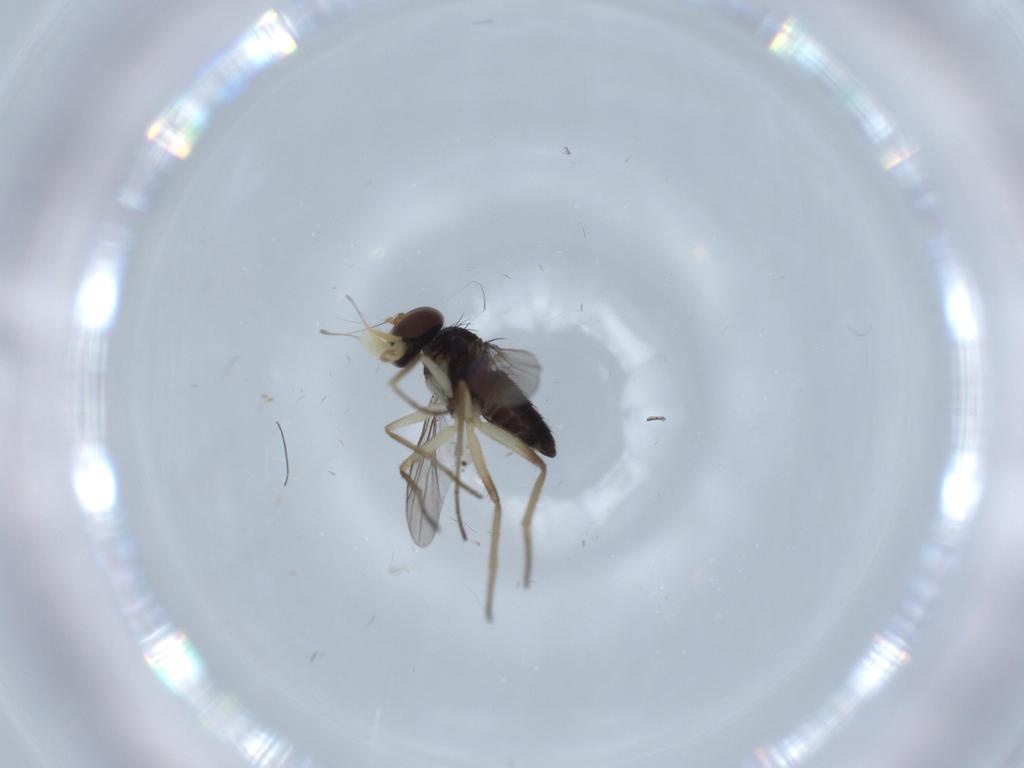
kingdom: Animalia
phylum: Arthropoda
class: Insecta
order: Diptera
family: Dolichopodidae
